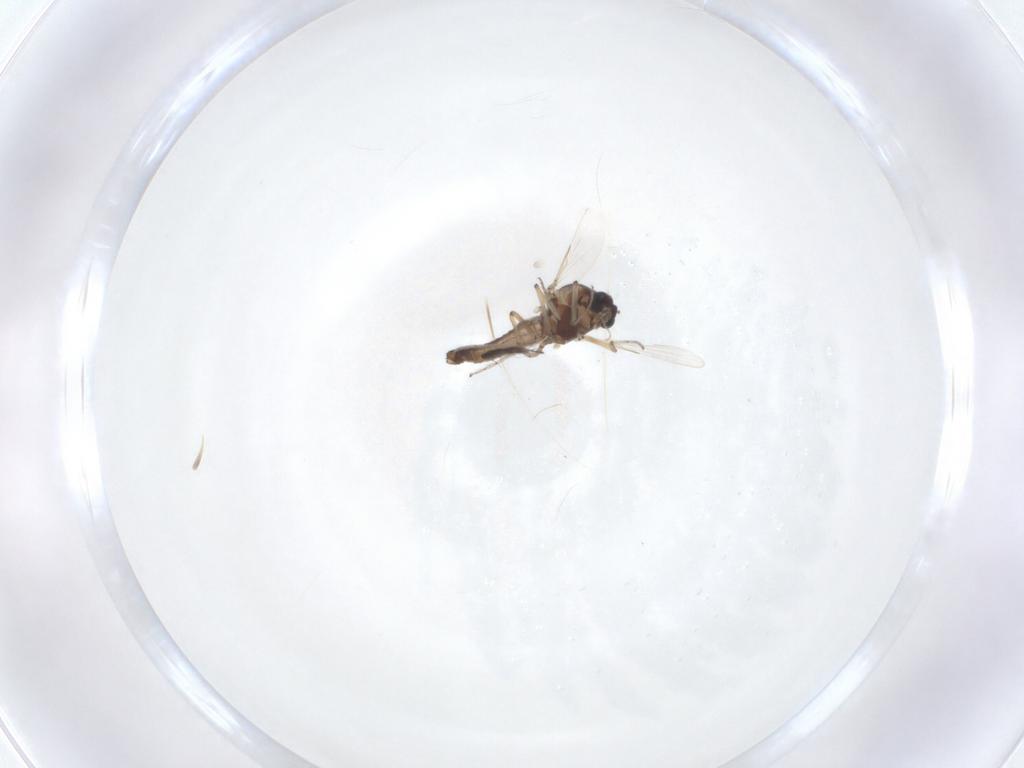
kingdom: Animalia
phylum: Arthropoda
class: Insecta
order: Diptera
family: Ceratopogonidae
